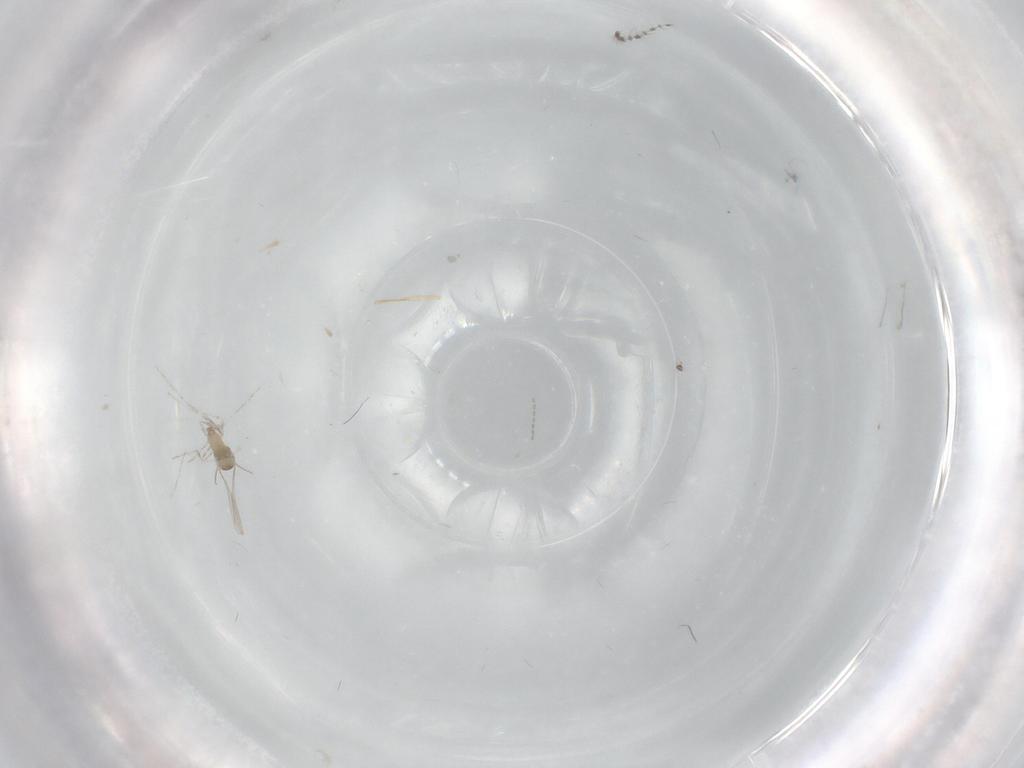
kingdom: Animalia
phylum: Arthropoda
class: Insecta
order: Diptera
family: Cecidomyiidae
